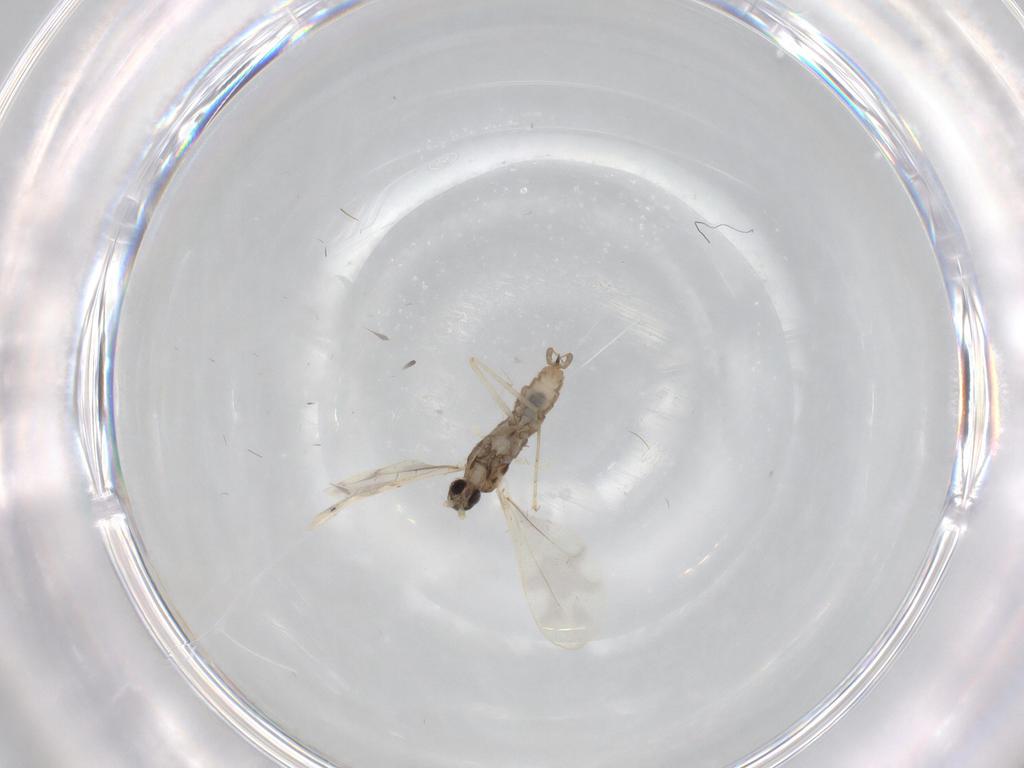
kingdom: Animalia
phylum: Arthropoda
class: Insecta
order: Diptera
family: Cecidomyiidae
